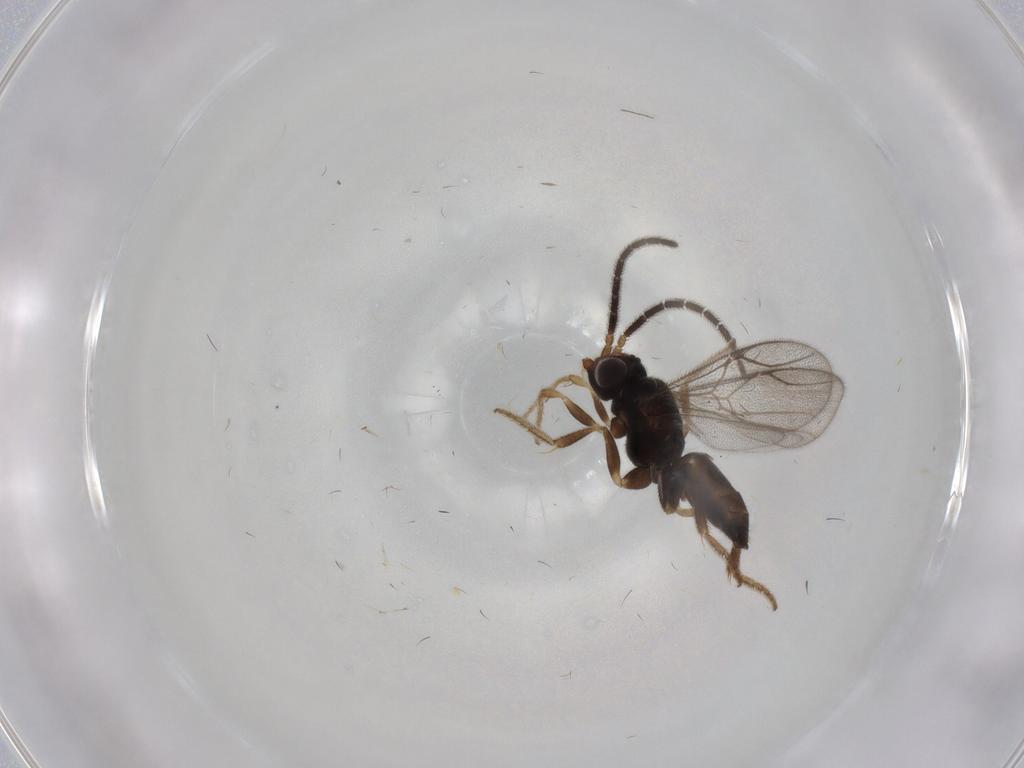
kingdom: Animalia
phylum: Arthropoda
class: Insecta
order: Hymenoptera
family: Dryinidae
